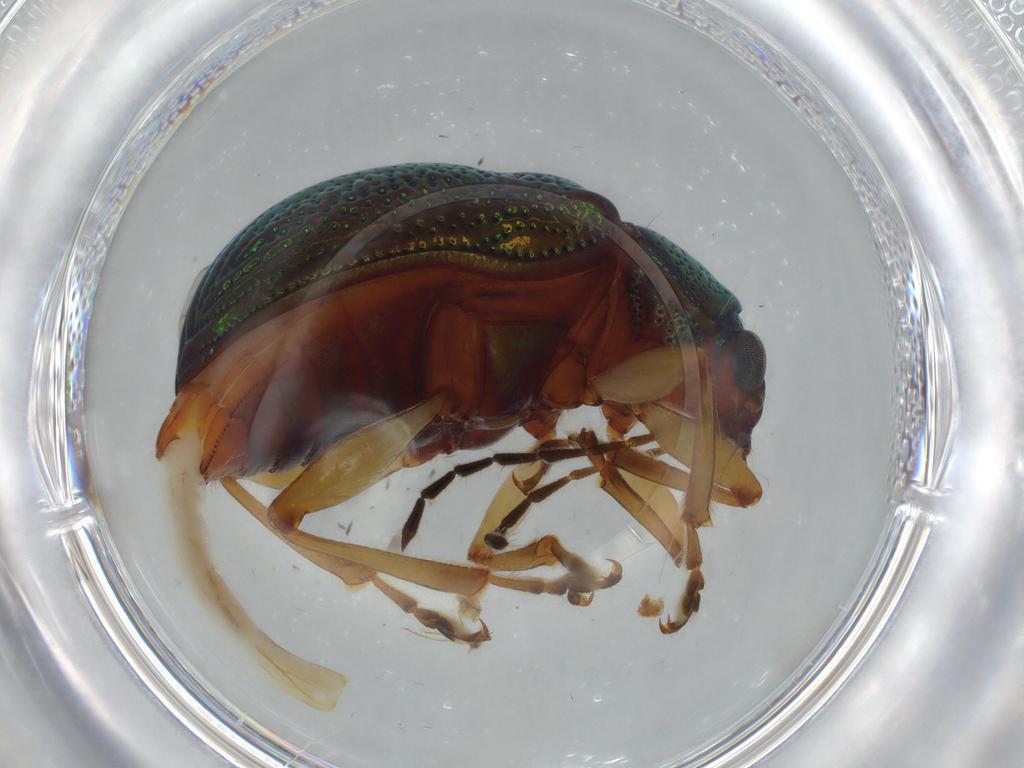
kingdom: Animalia
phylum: Arthropoda
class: Insecta
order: Coleoptera
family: Chrysomelidae
